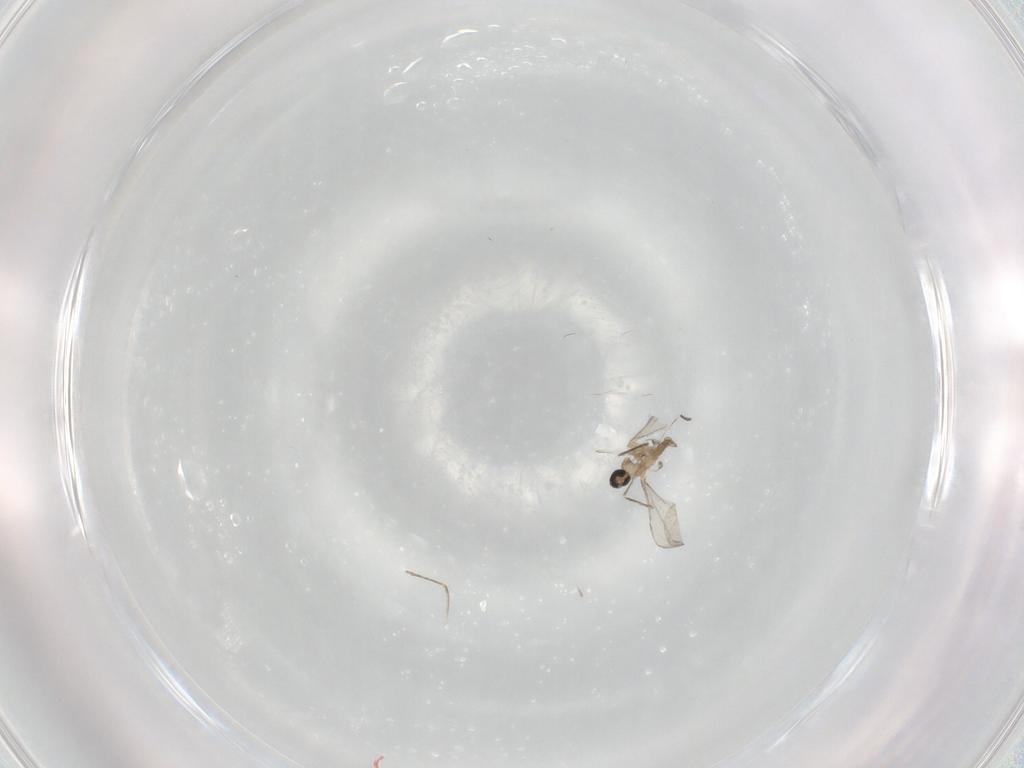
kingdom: Animalia
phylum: Arthropoda
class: Insecta
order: Diptera
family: Cecidomyiidae
